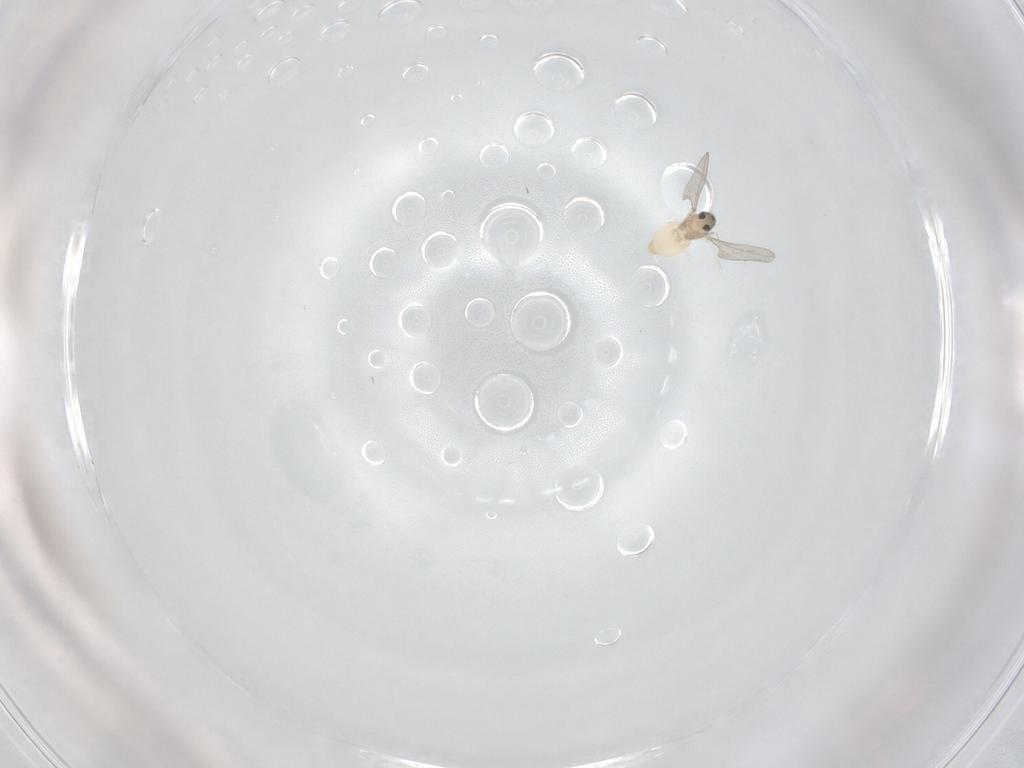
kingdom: Animalia
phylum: Arthropoda
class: Insecta
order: Diptera
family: Cecidomyiidae
